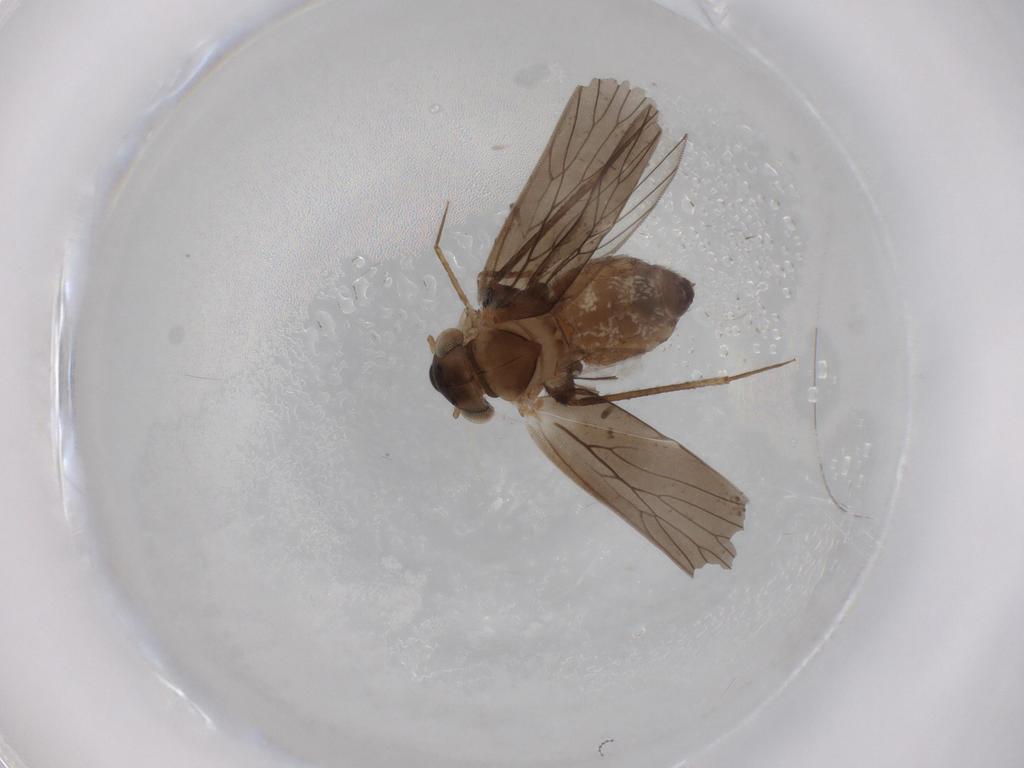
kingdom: Animalia
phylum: Arthropoda
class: Insecta
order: Psocodea
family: Lepidopsocidae
